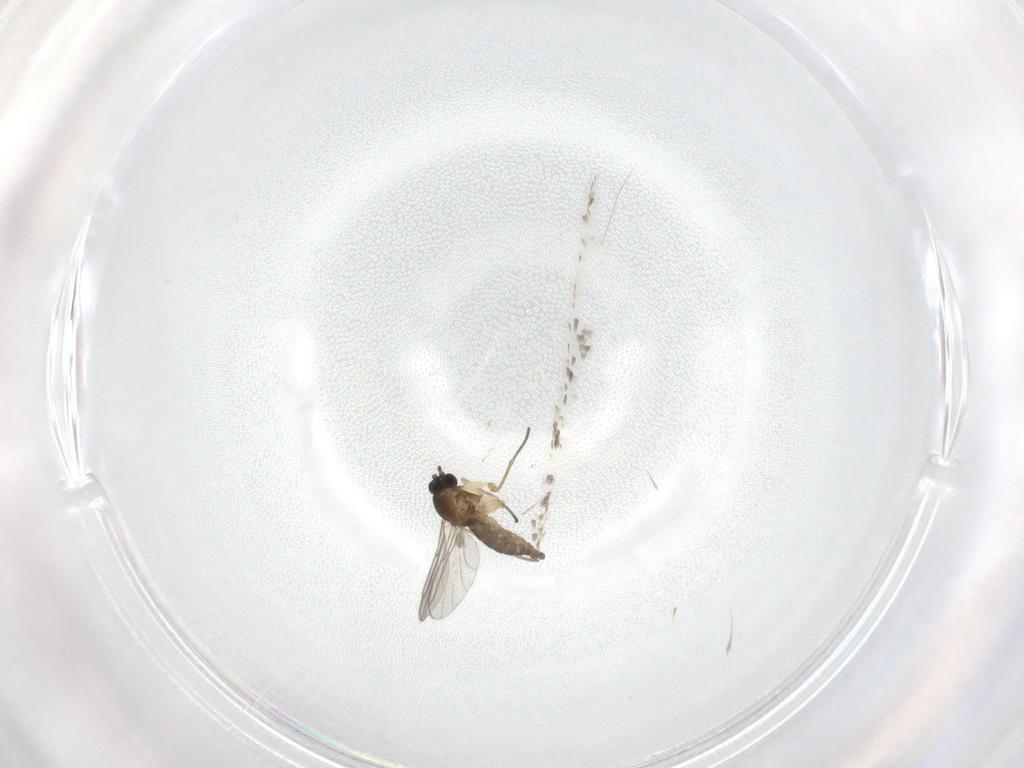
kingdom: Animalia
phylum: Arthropoda
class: Insecta
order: Diptera
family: Sciaridae
